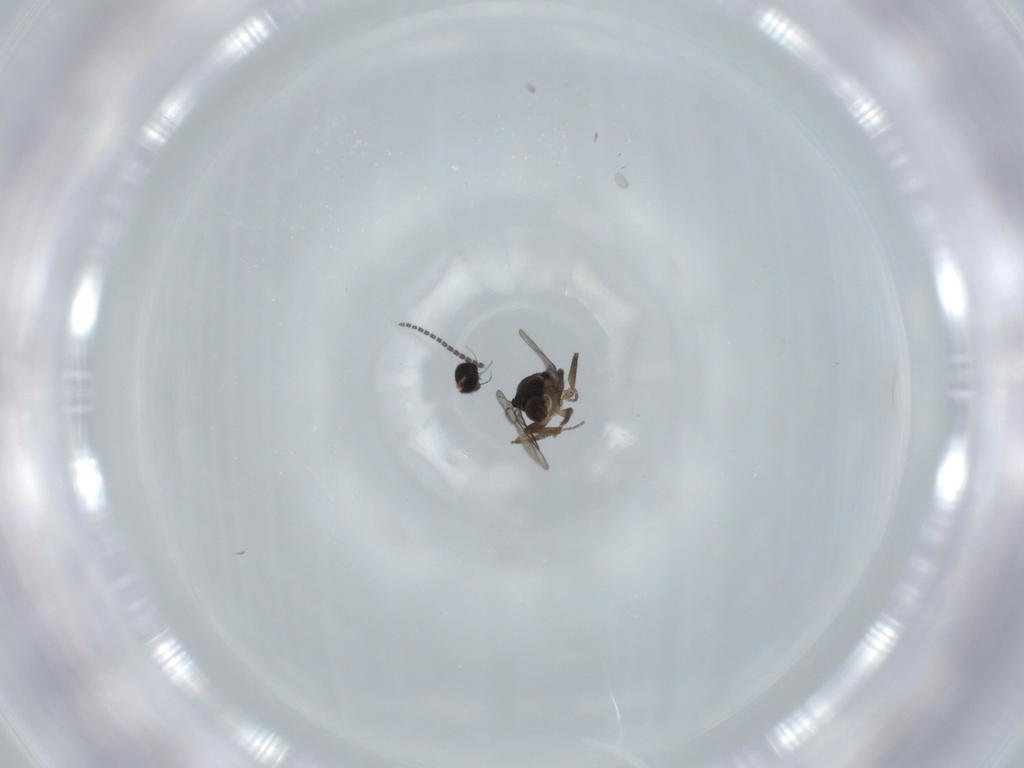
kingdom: Animalia
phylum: Arthropoda
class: Insecta
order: Diptera
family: Phoridae
